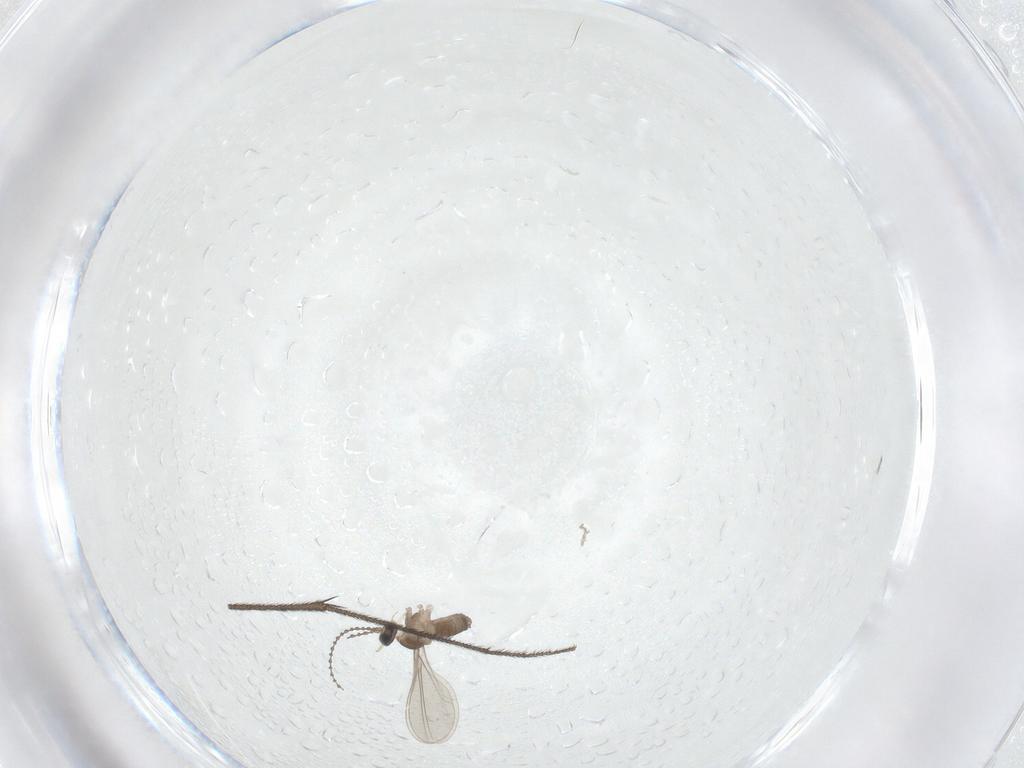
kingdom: Animalia
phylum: Arthropoda
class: Insecta
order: Diptera
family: Cecidomyiidae
